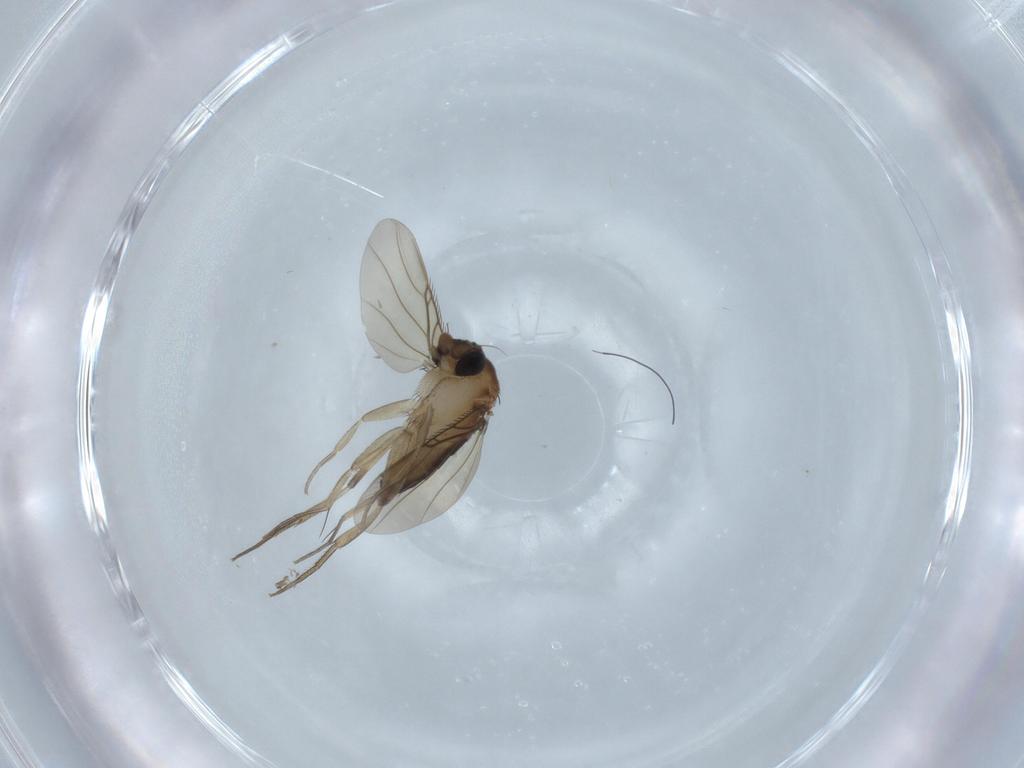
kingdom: Animalia
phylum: Arthropoda
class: Insecta
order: Diptera
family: Phoridae
